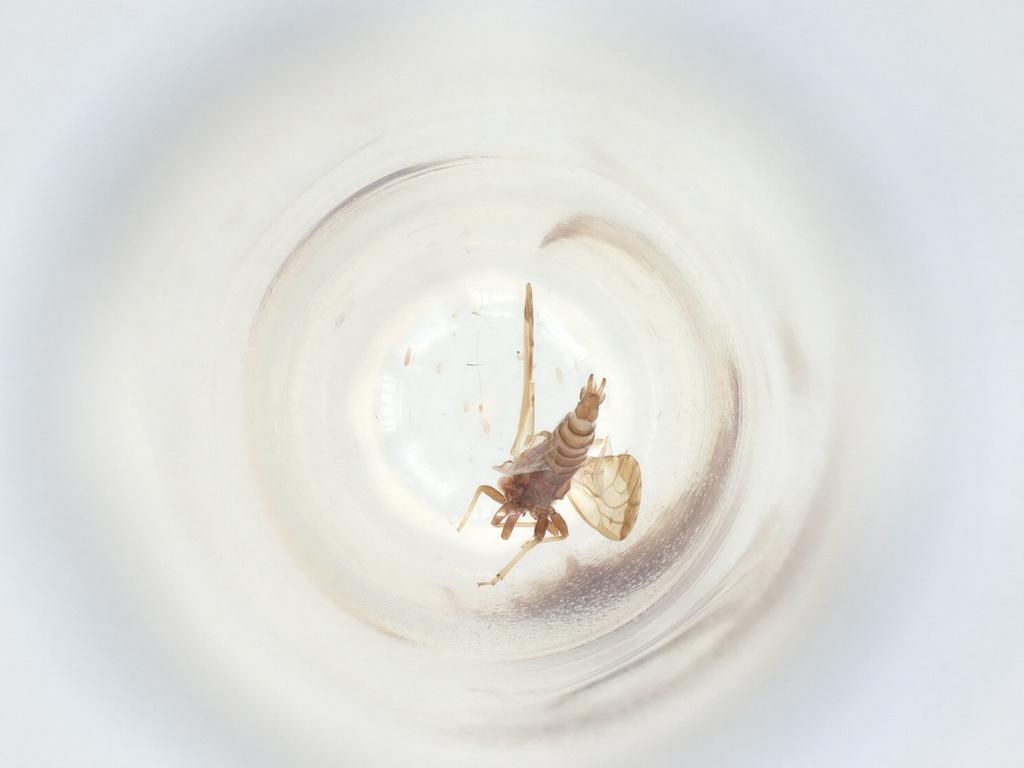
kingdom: Animalia
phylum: Arthropoda
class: Insecta
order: Hemiptera
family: Psyllidae
